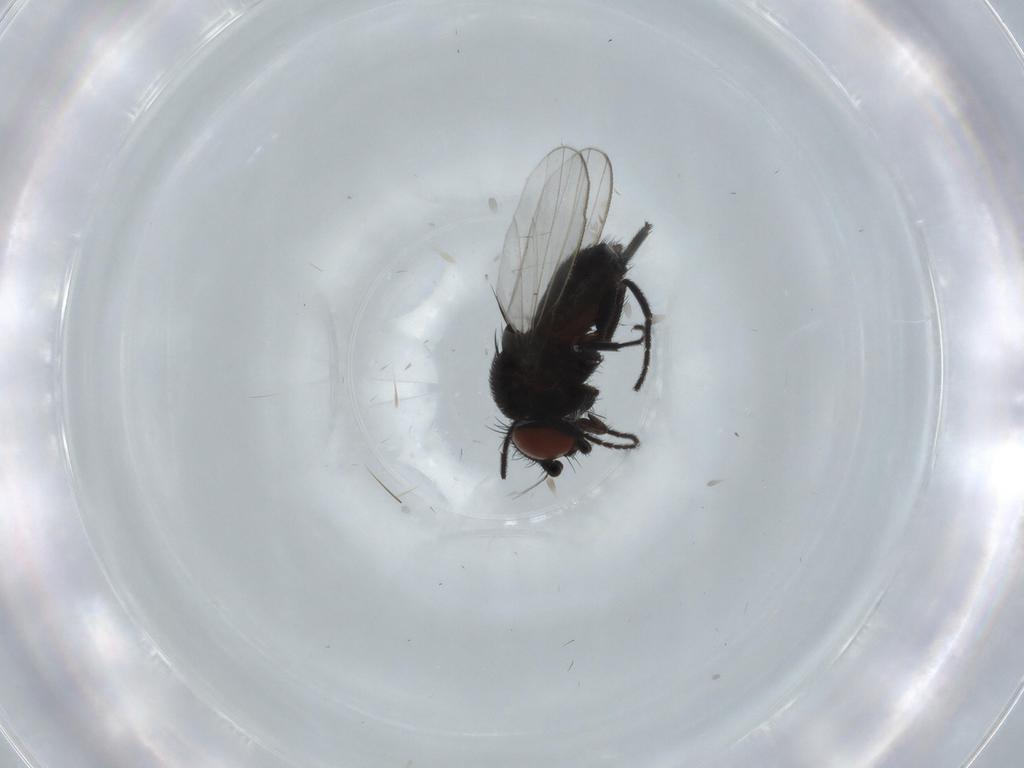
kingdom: Animalia
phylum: Arthropoda
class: Insecta
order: Diptera
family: Milichiidae
